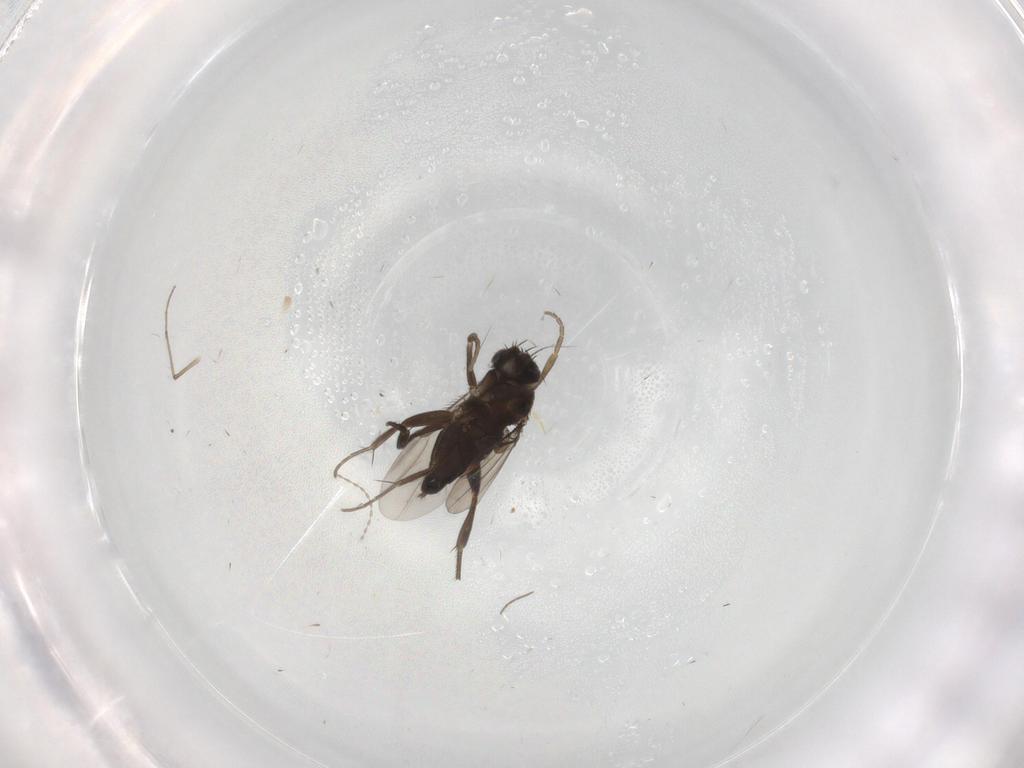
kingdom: Animalia
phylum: Arthropoda
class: Insecta
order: Diptera
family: Phoridae
